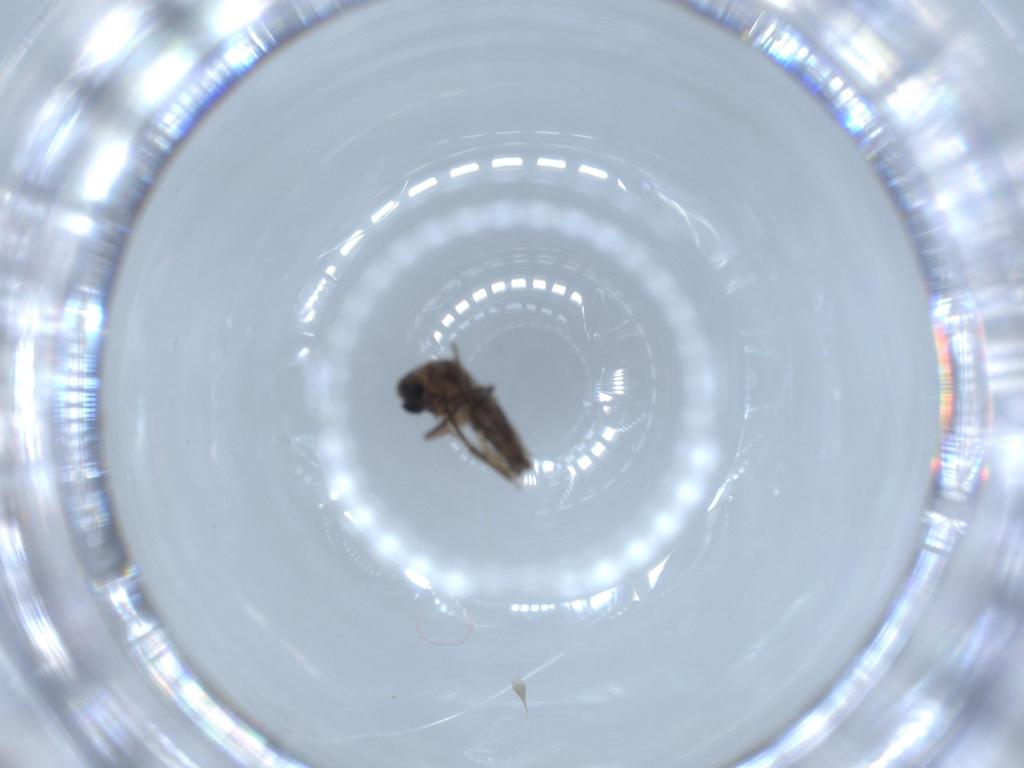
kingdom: Animalia
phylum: Arthropoda
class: Insecta
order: Diptera
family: Sciaridae
